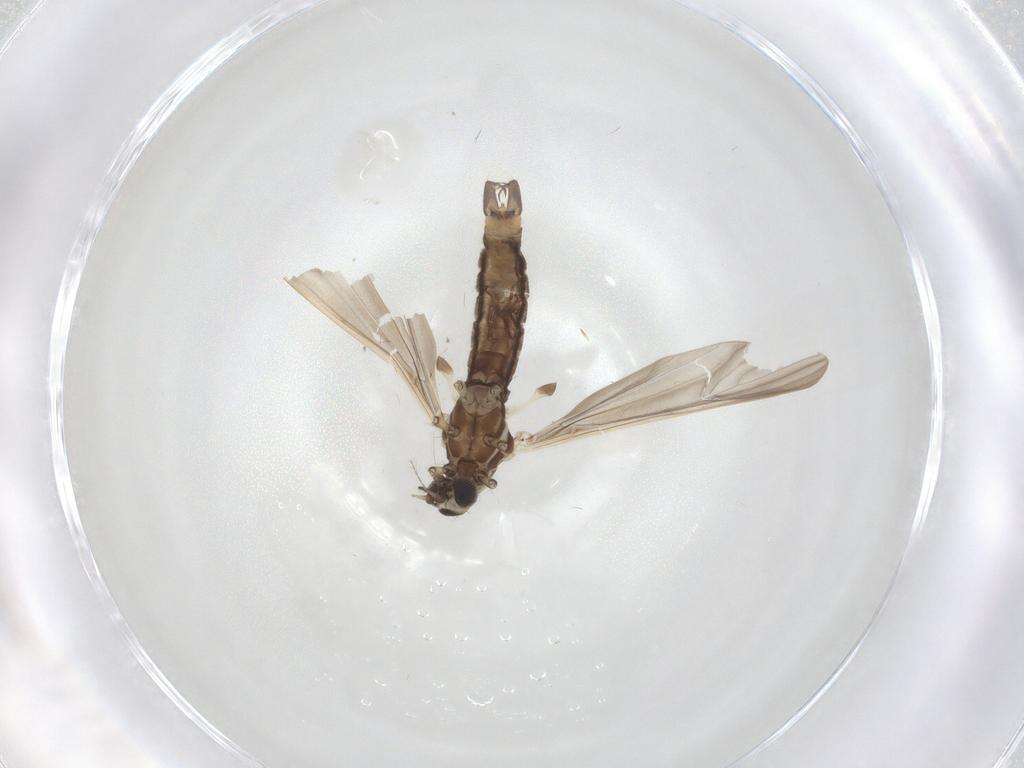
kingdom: Animalia
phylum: Arthropoda
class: Insecta
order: Diptera
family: Limoniidae
